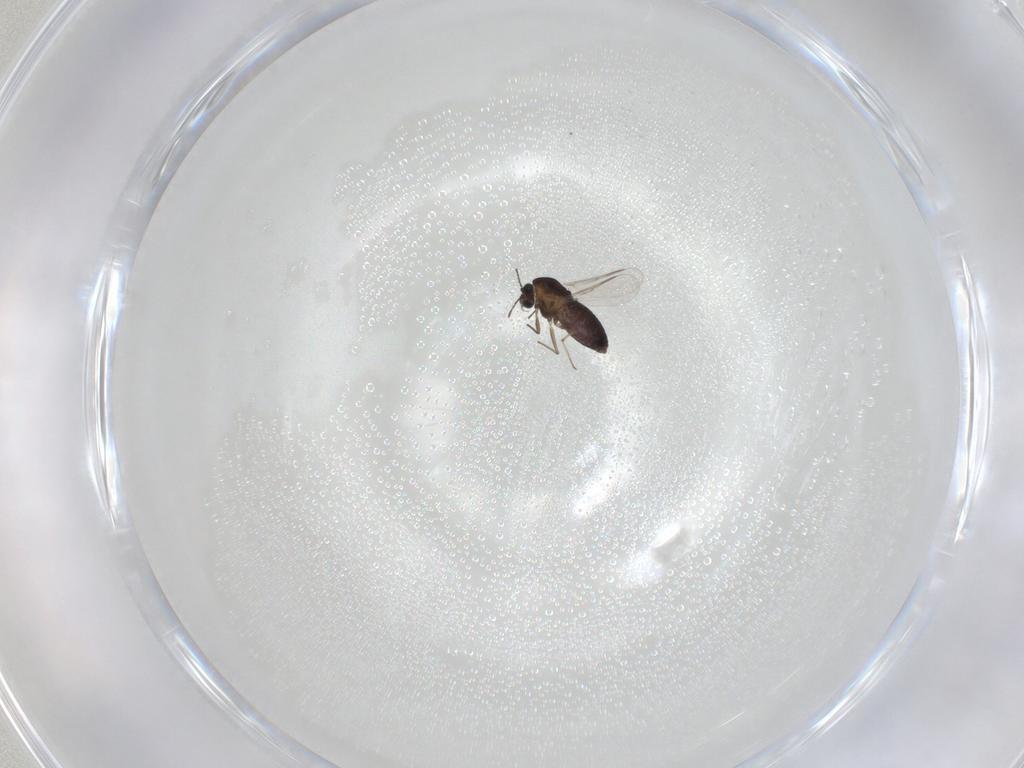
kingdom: Animalia
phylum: Arthropoda
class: Insecta
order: Diptera
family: Chironomidae
